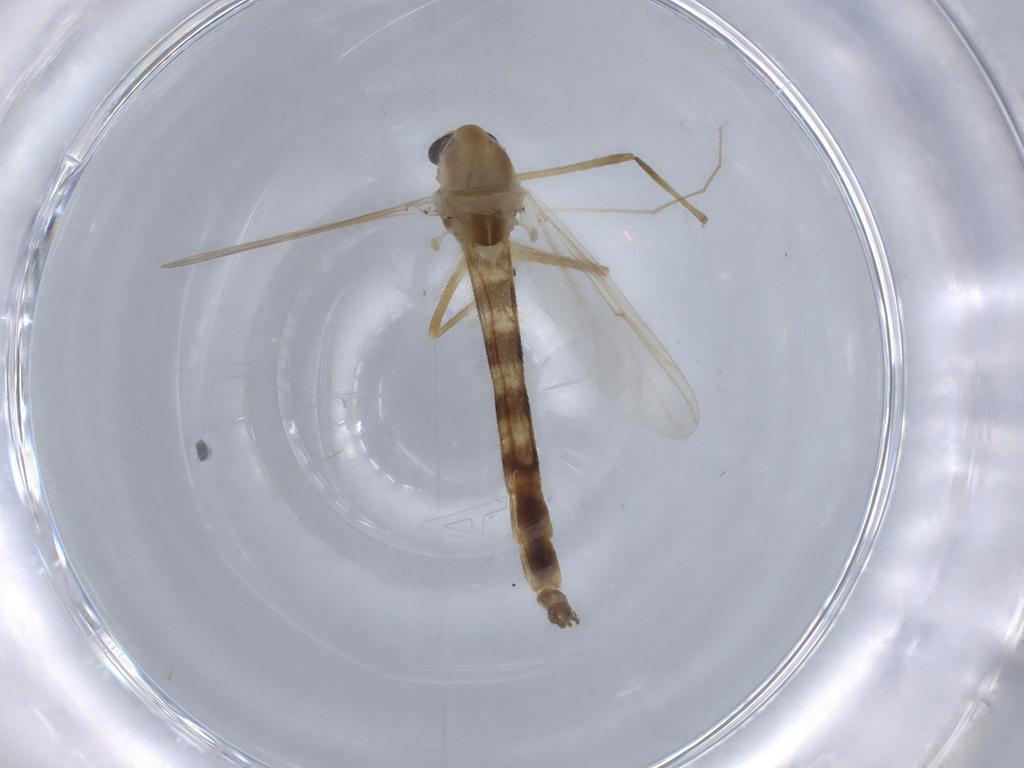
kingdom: Animalia
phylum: Arthropoda
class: Insecta
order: Diptera
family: Chironomidae
